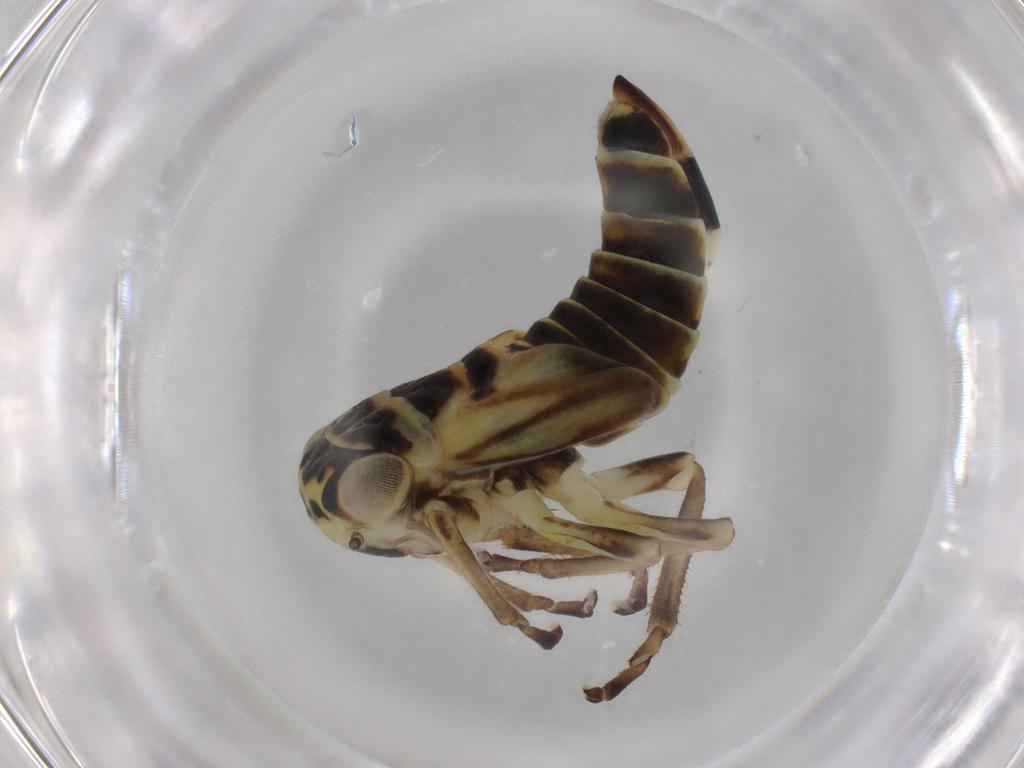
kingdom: Animalia
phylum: Arthropoda
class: Insecta
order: Hemiptera
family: Cicadellidae
